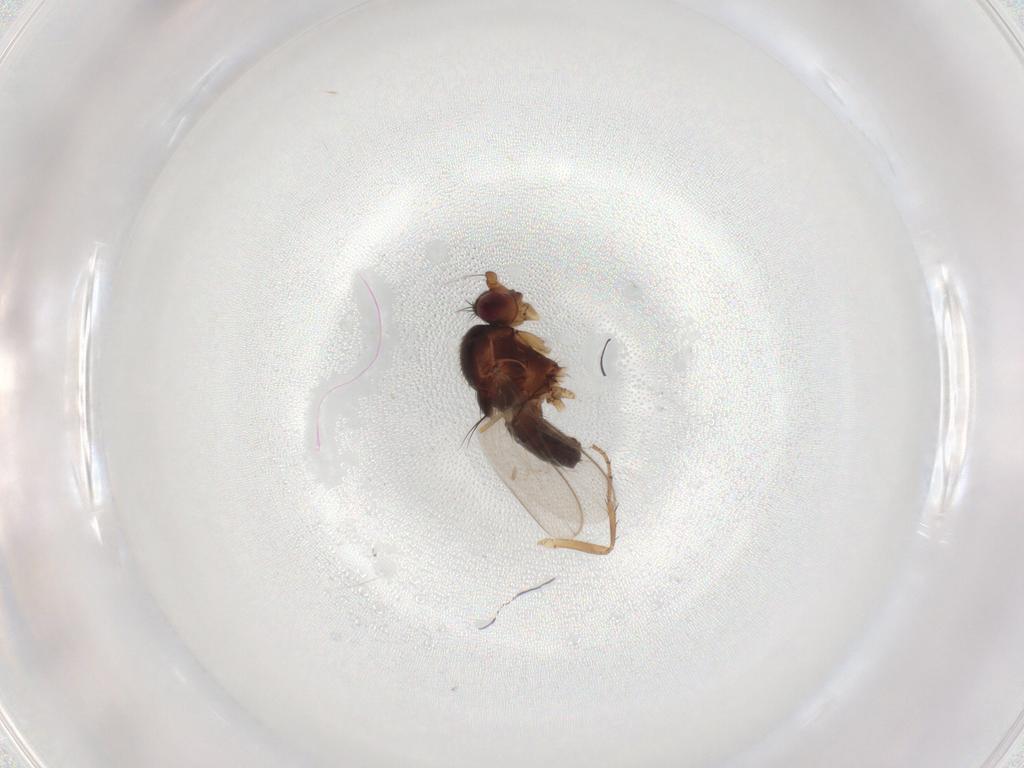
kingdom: Animalia
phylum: Arthropoda
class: Insecta
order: Diptera
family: Sphaeroceridae
